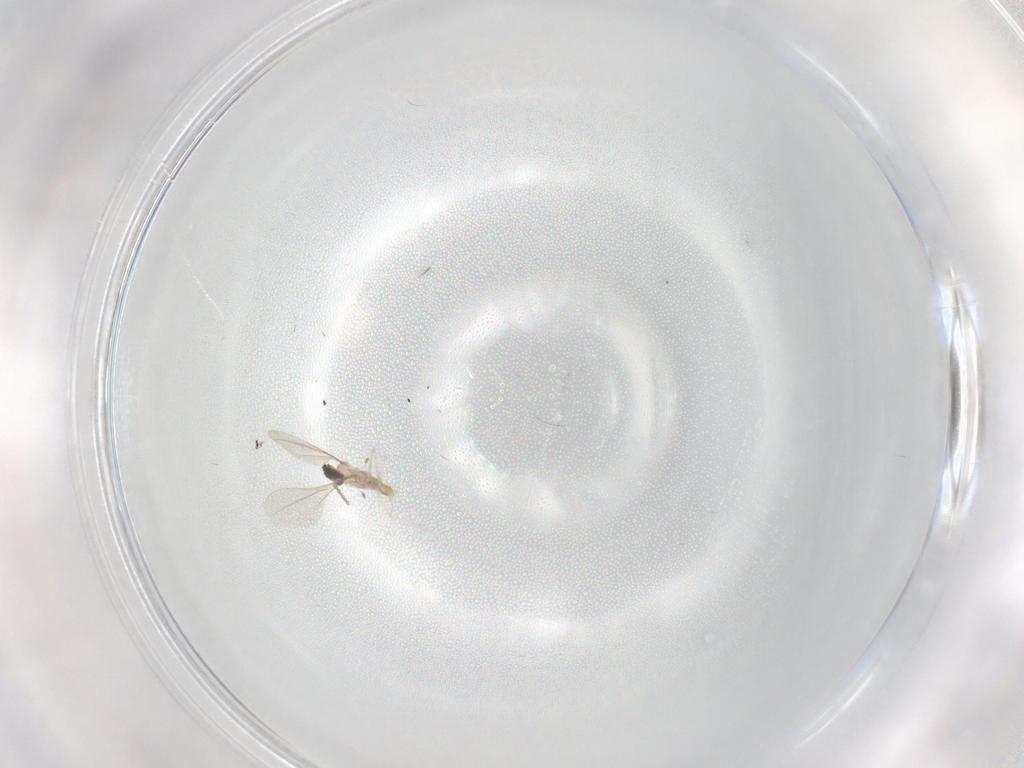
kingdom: Animalia
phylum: Arthropoda
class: Insecta
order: Diptera
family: Cecidomyiidae
